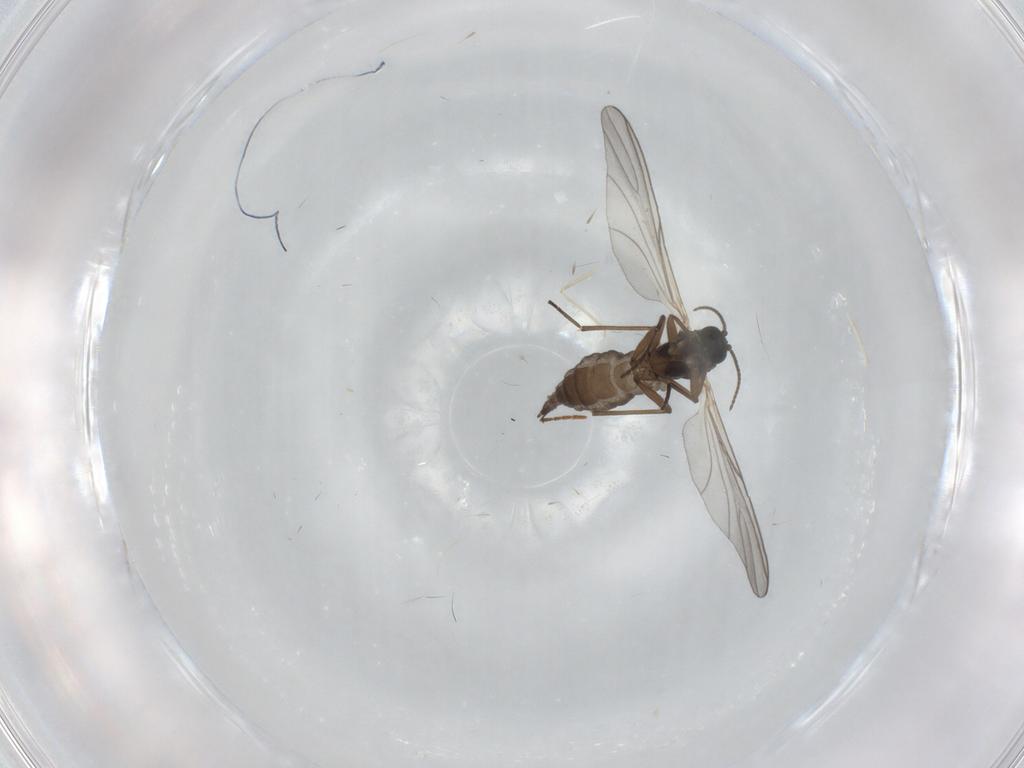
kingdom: Animalia
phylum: Arthropoda
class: Insecta
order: Diptera
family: Sciaridae
